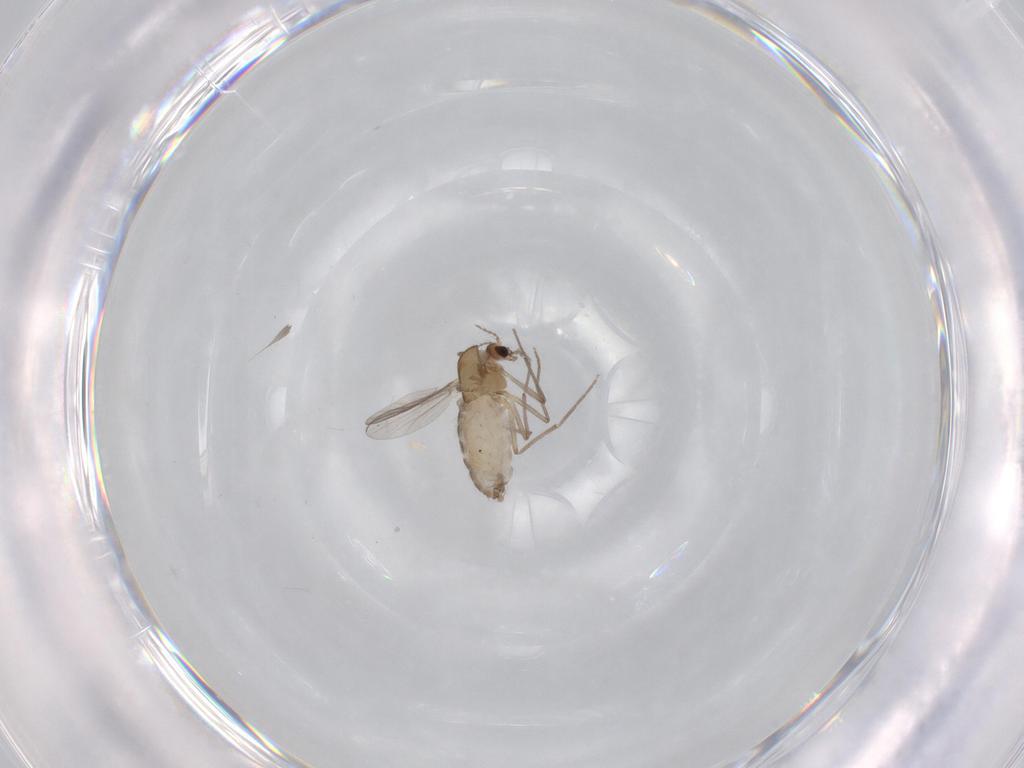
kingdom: Animalia
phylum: Arthropoda
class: Insecta
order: Diptera
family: Chironomidae
